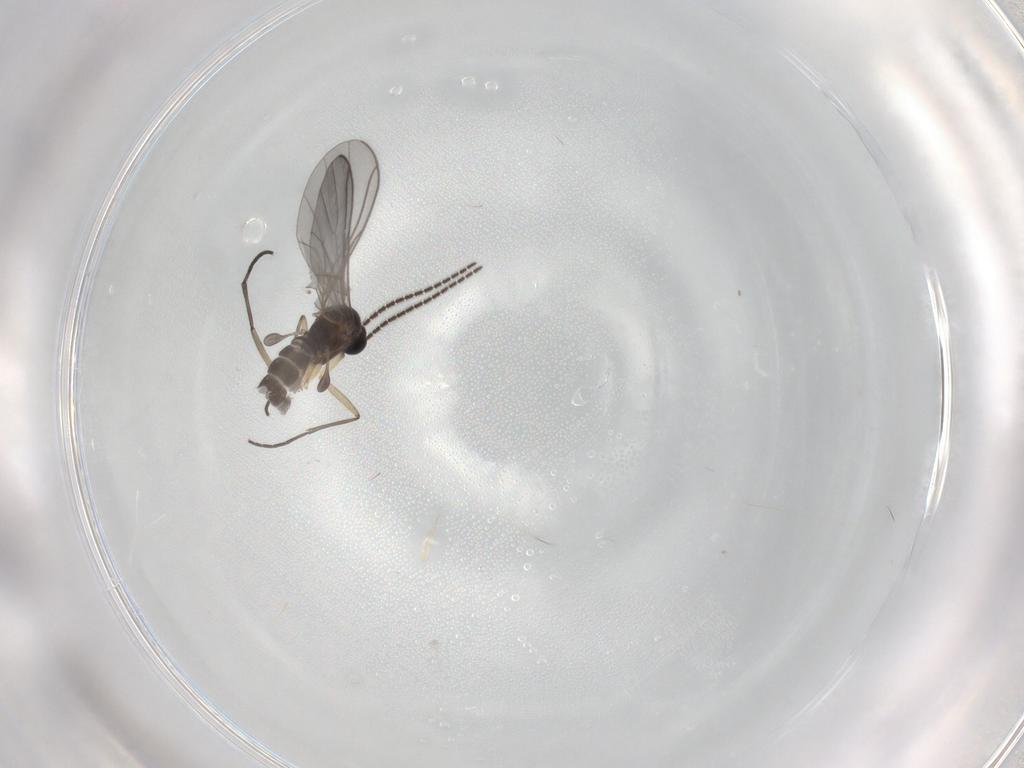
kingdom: Animalia
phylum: Arthropoda
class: Insecta
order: Diptera
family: Sciaridae
